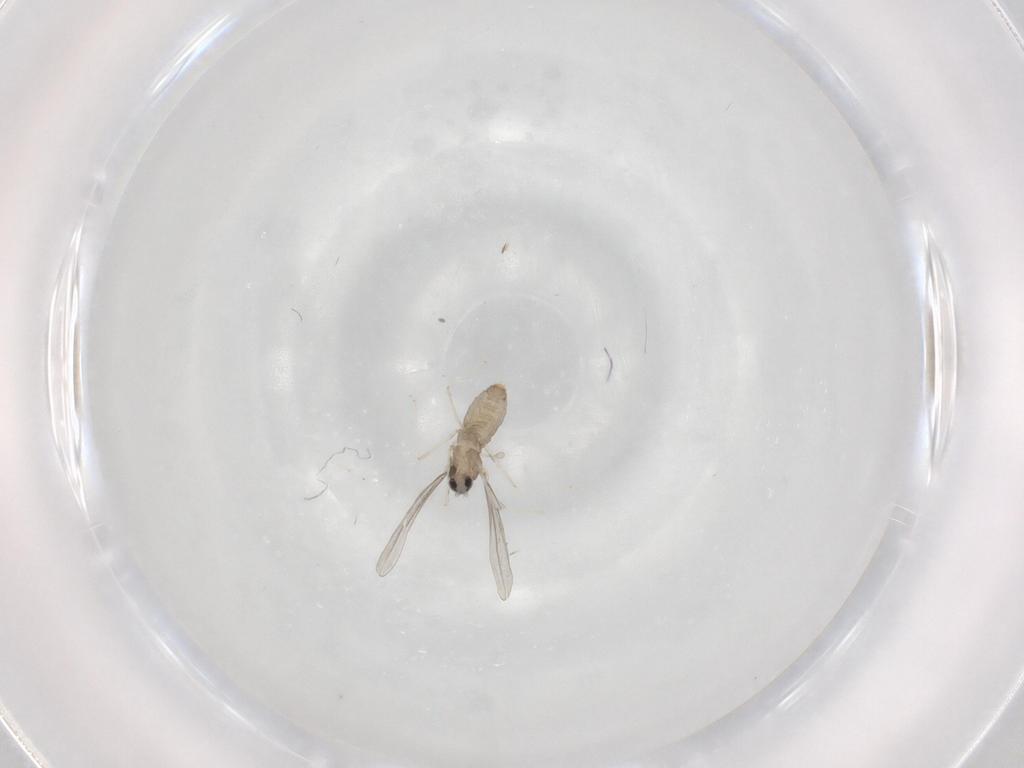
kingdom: Animalia
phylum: Arthropoda
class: Insecta
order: Diptera
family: Cecidomyiidae
